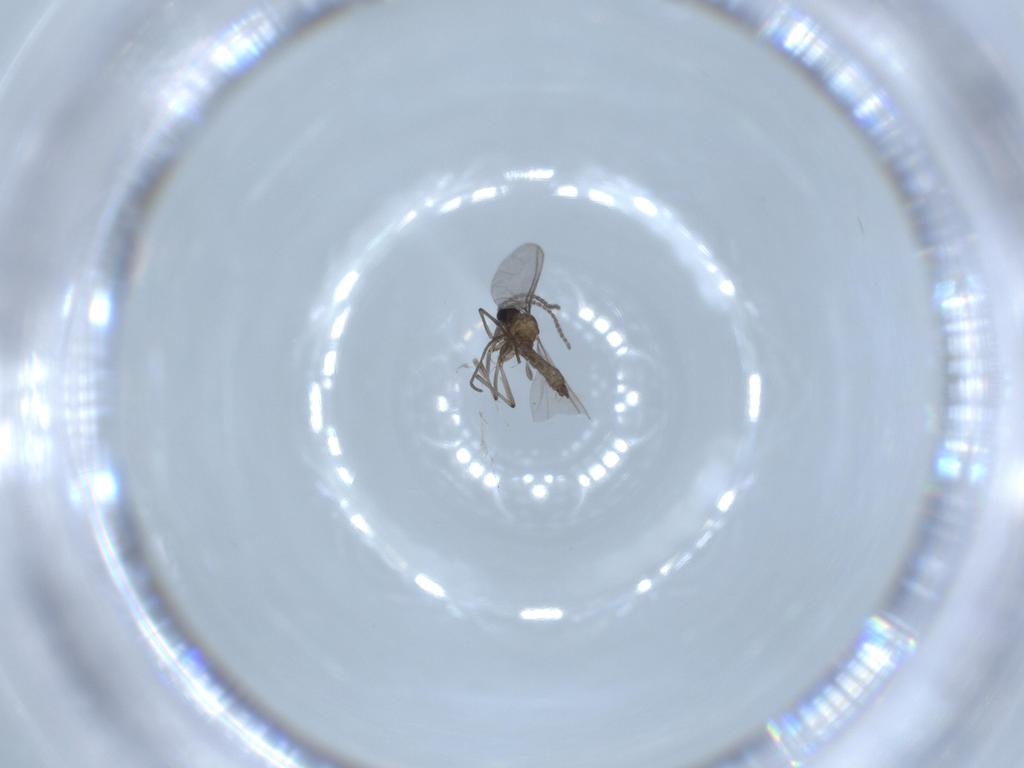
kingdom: Animalia
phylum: Arthropoda
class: Insecta
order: Diptera
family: Sciaridae
